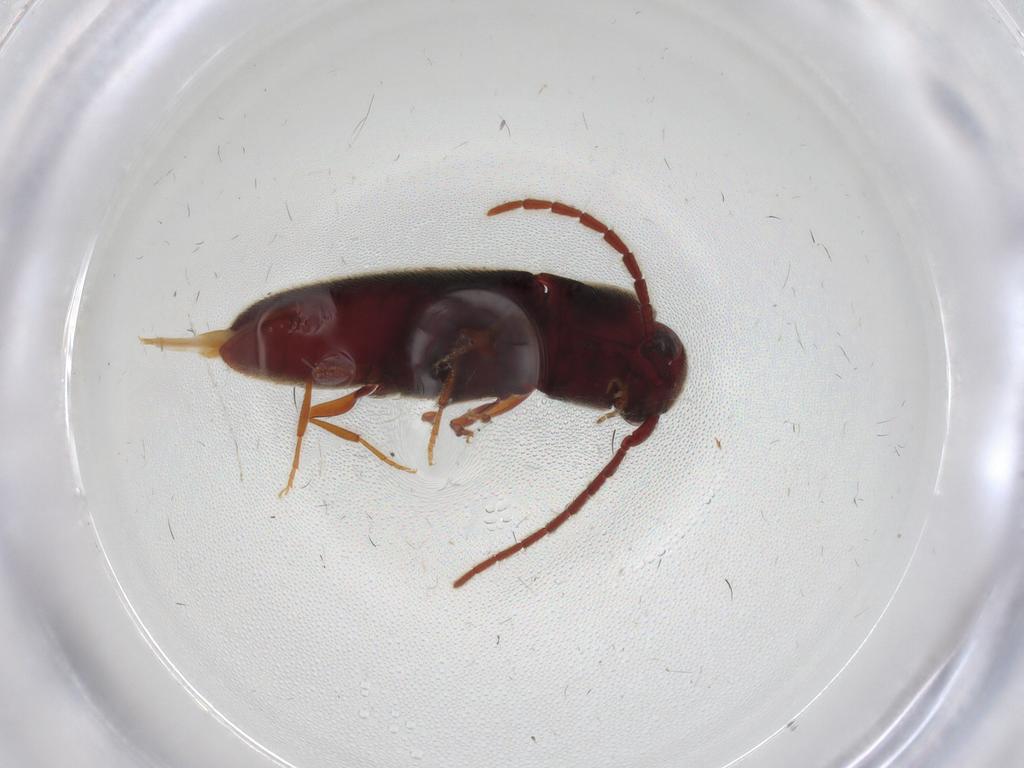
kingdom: Animalia
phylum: Arthropoda
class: Insecta
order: Coleoptera
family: Eucnemidae
